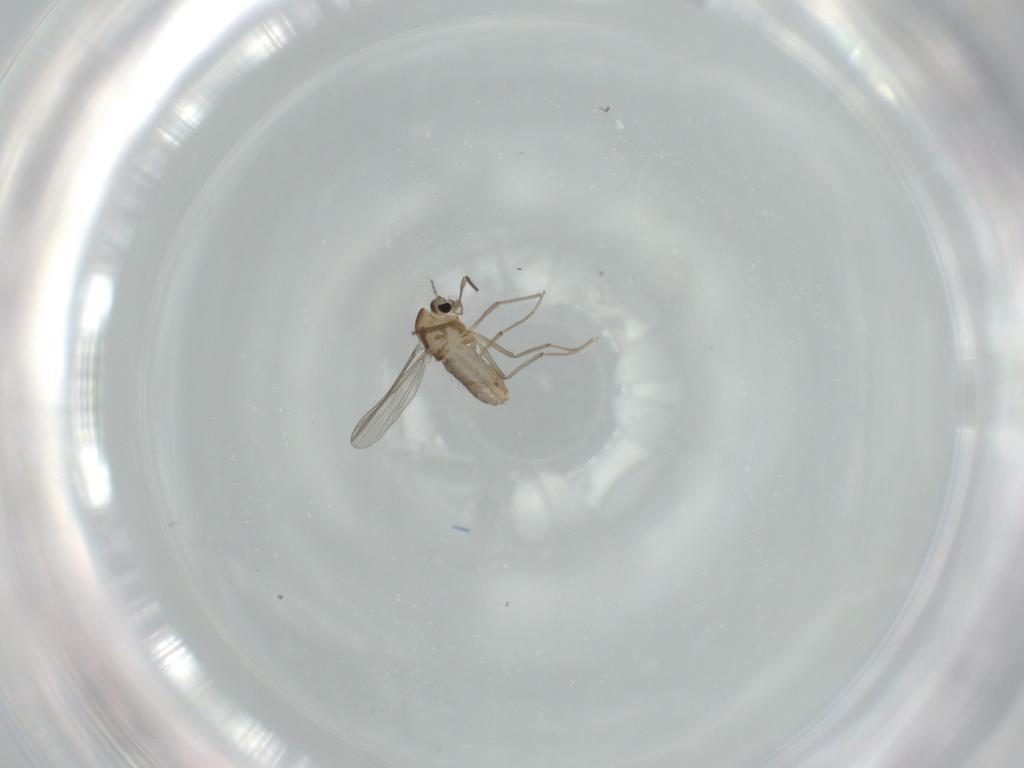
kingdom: Animalia
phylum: Arthropoda
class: Insecta
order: Diptera
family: Chironomidae
